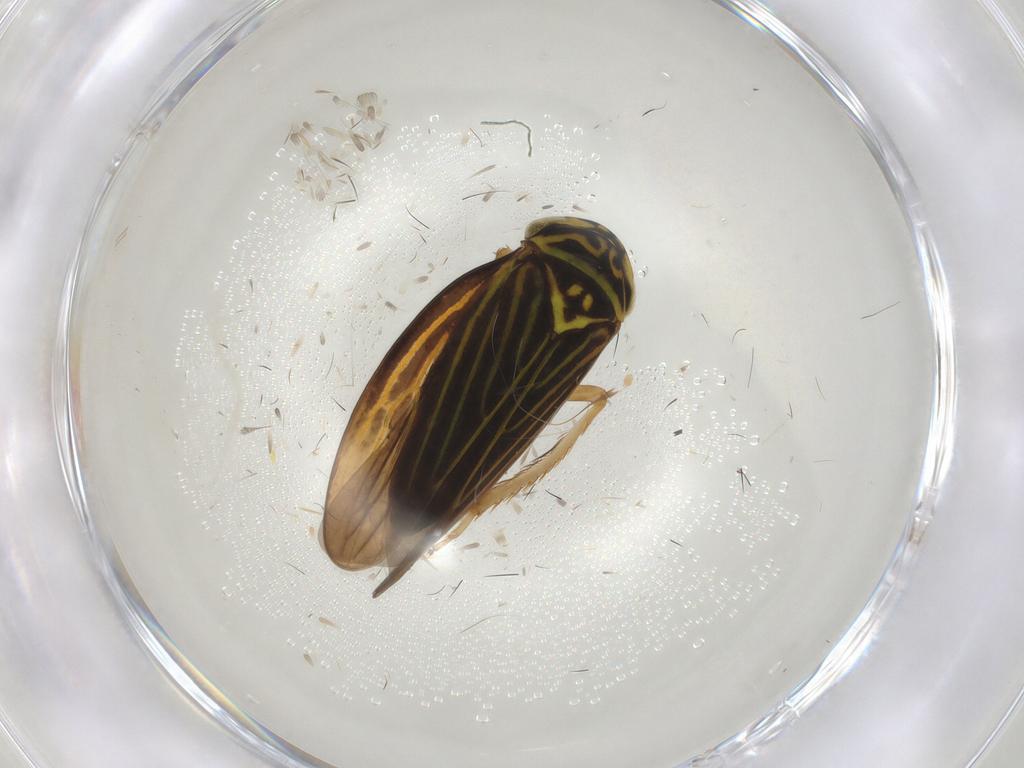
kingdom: Animalia
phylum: Arthropoda
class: Insecta
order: Hemiptera
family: Cicadellidae
